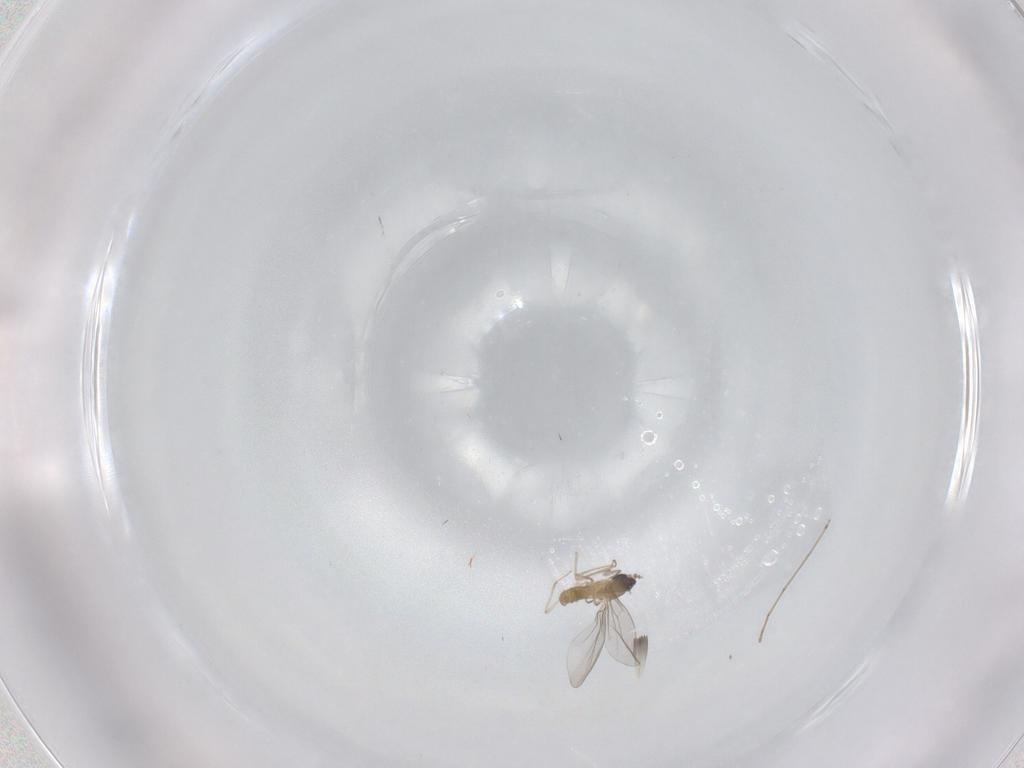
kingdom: Animalia
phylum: Arthropoda
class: Insecta
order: Diptera
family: Cecidomyiidae
